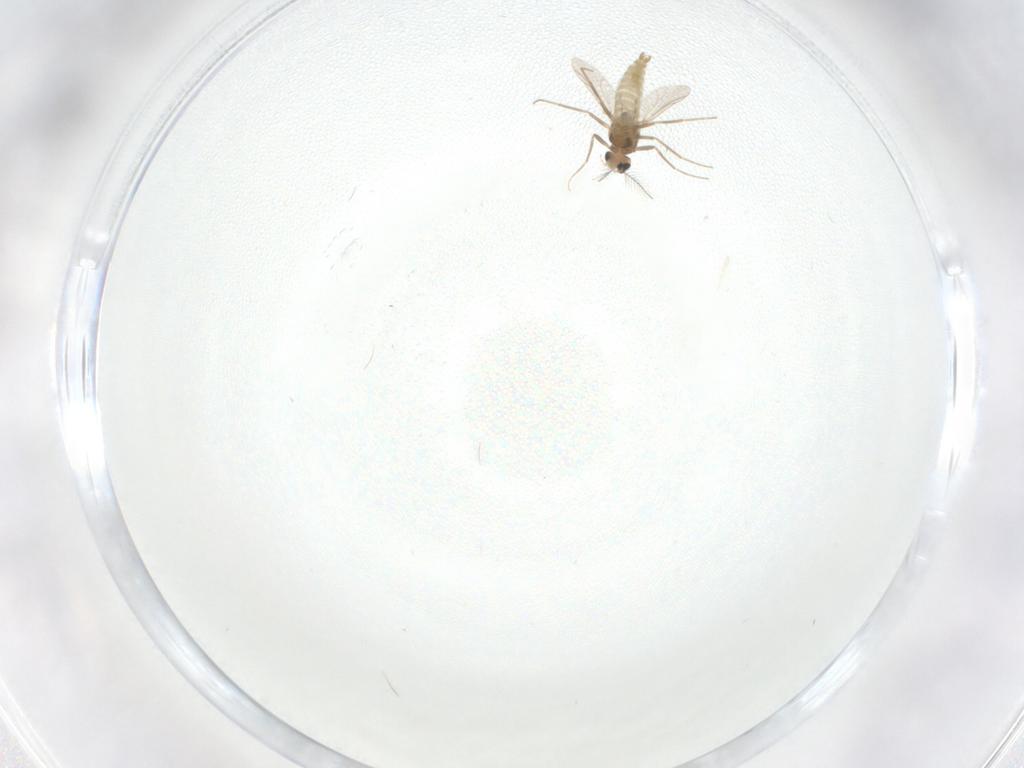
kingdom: Animalia
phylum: Arthropoda
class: Insecta
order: Diptera
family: Chironomidae
